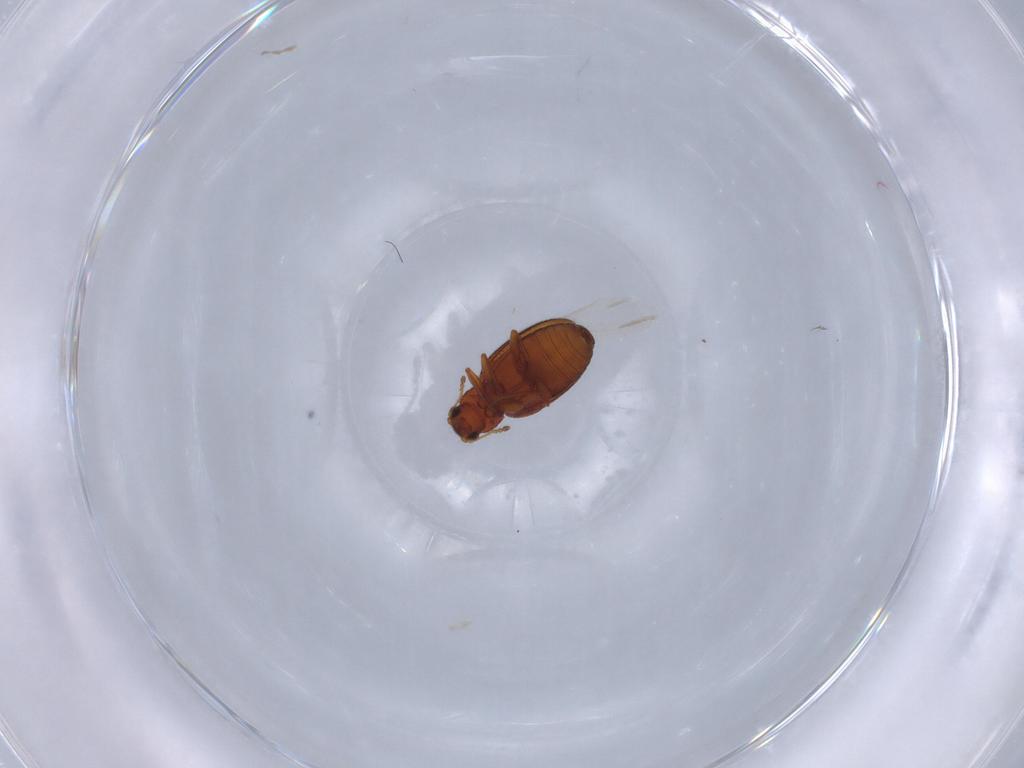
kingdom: Animalia
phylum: Arthropoda
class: Insecta
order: Coleoptera
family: Latridiidae
